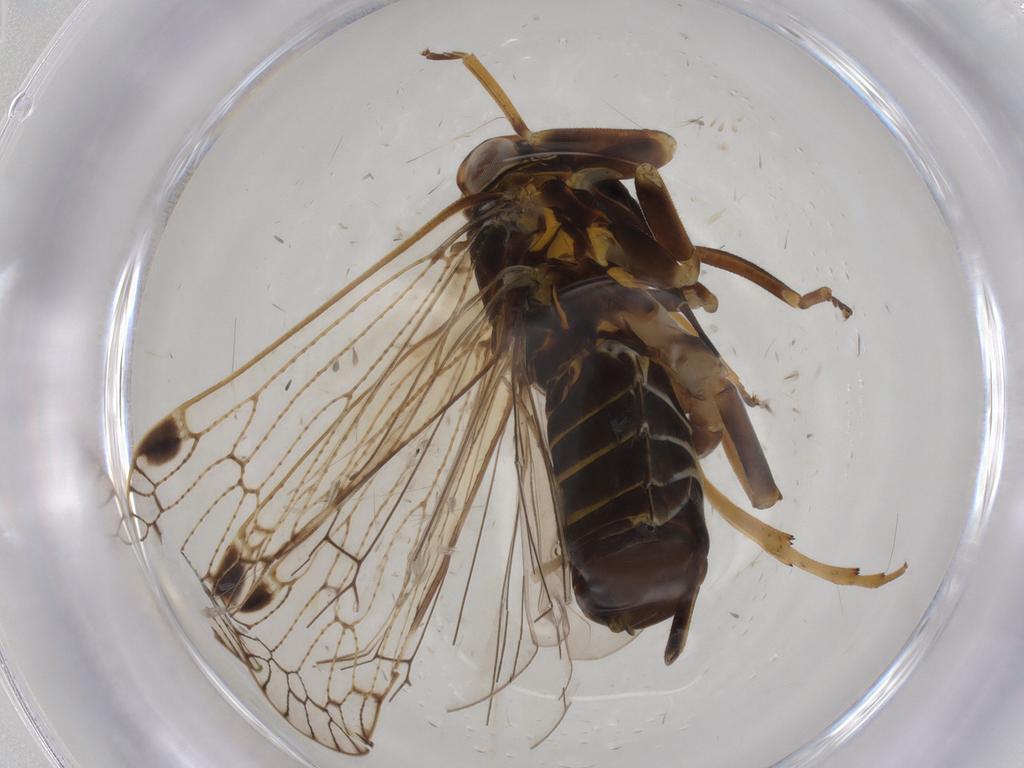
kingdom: Animalia
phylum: Arthropoda
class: Insecta
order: Hemiptera
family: Cixiidae
